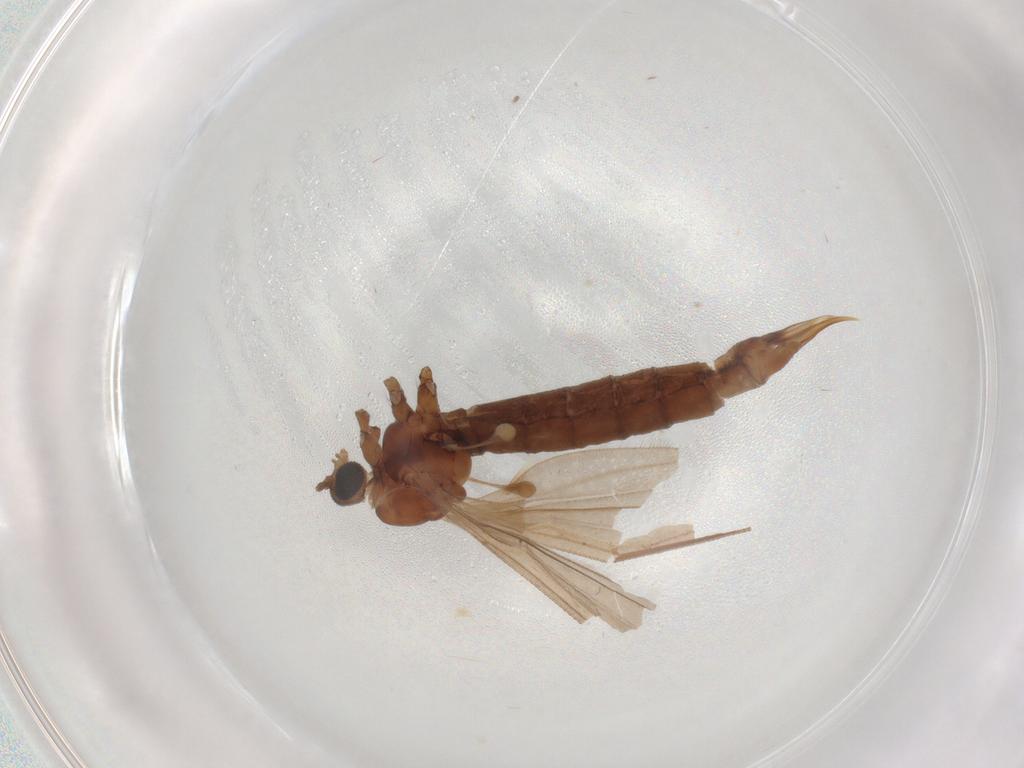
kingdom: Animalia
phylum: Arthropoda
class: Insecta
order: Diptera
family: Limoniidae
